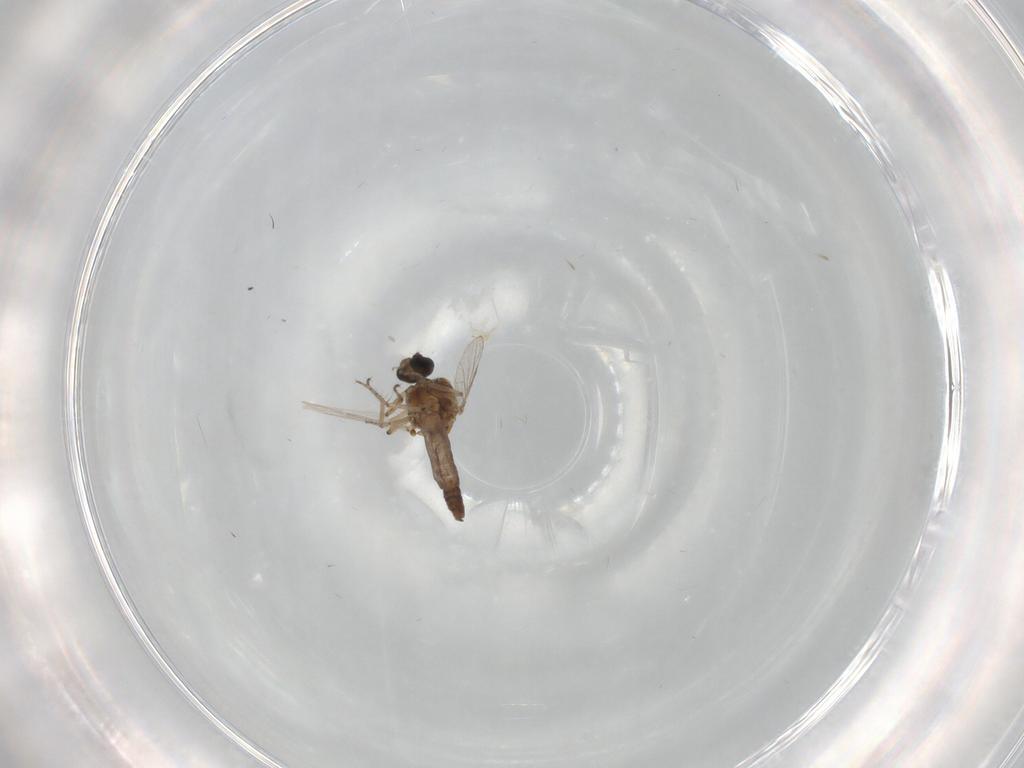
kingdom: Animalia
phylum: Arthropoda
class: Insecta
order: Diptera
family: Ceratopogonidae
